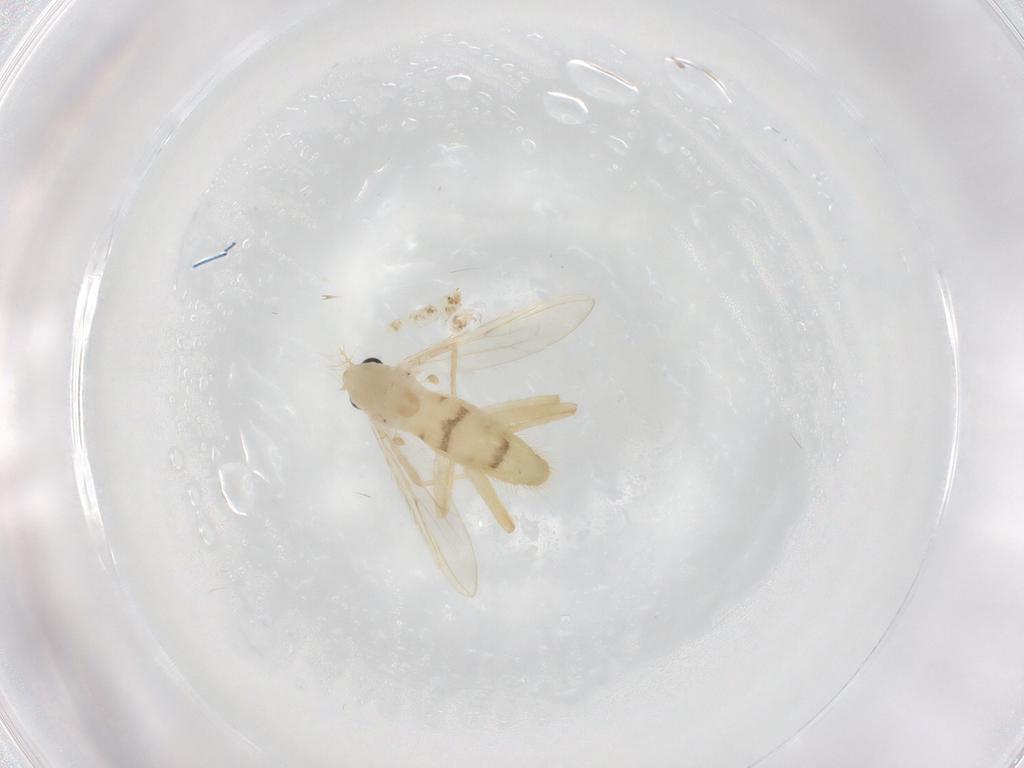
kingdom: Animalia
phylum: Arthropoda
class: Insecta
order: Diptera
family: Chironomidae
